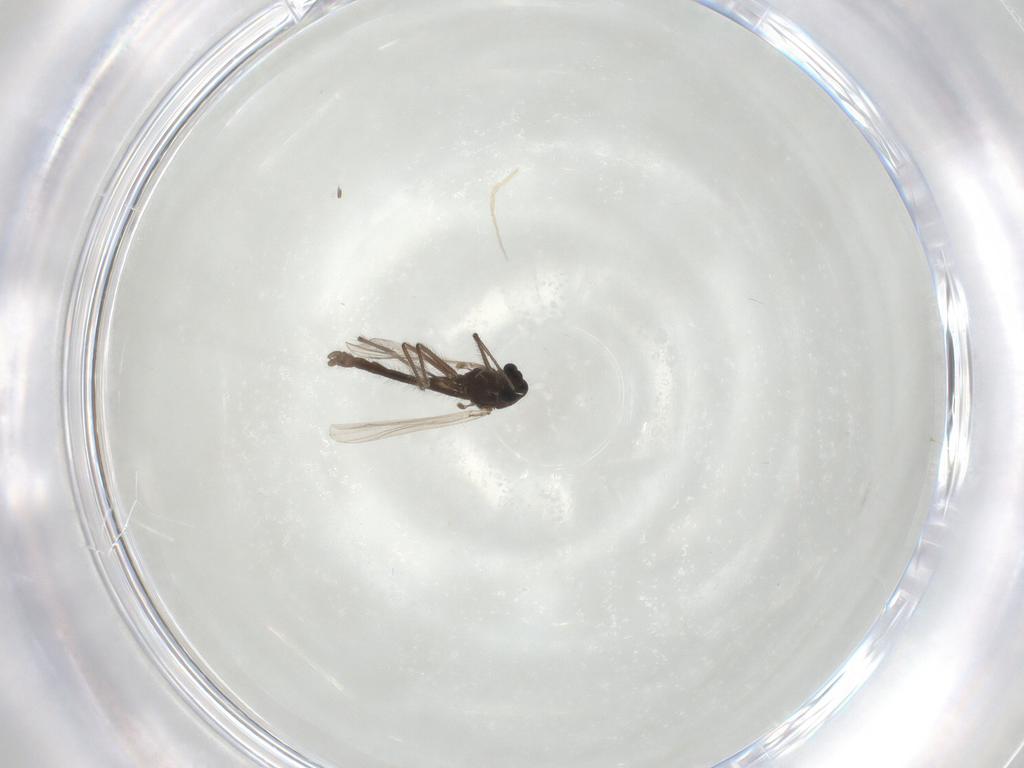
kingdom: Animalia
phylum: Arthropoda
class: Insecta
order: Diptera
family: Chironomidae
